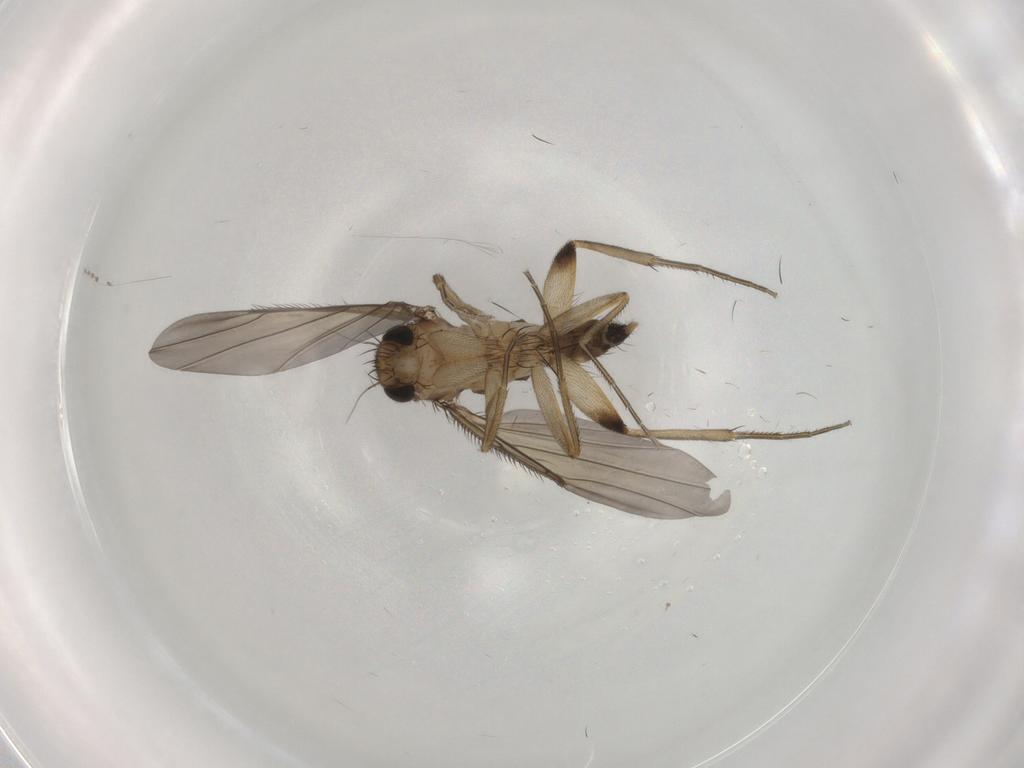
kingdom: Animalia
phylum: Arthropoda
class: Insecta
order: Diptera
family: Phoridae
